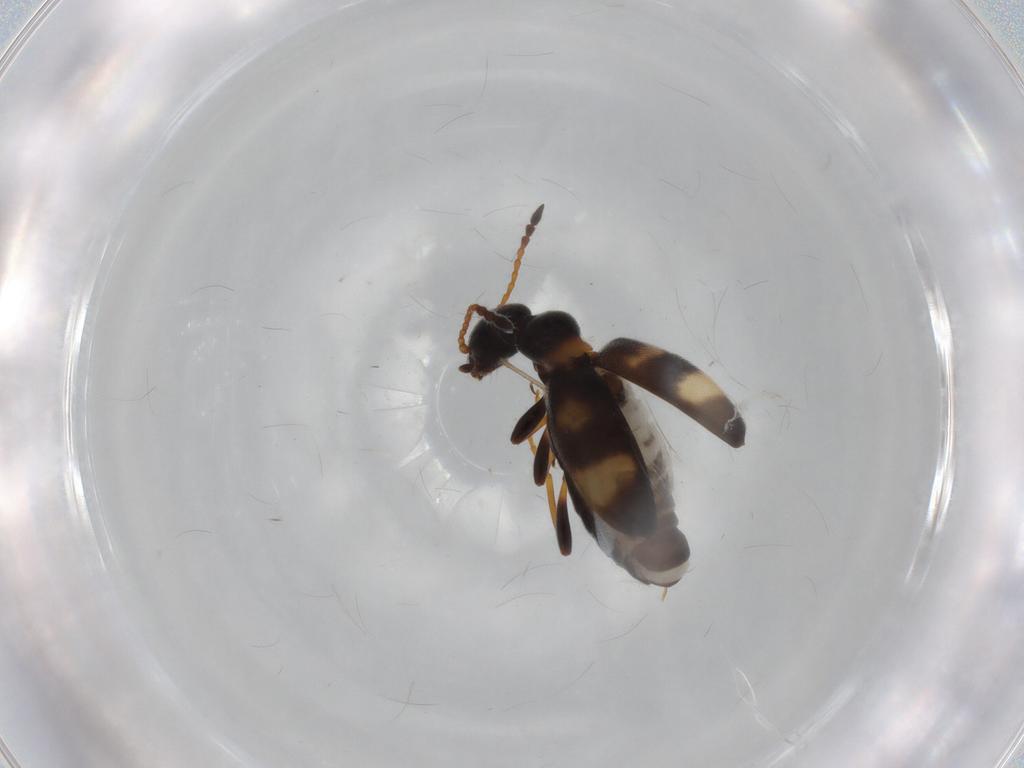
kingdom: Animalia
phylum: Arthropoda
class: Insecta
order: Coleoptera
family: Anthicidae
